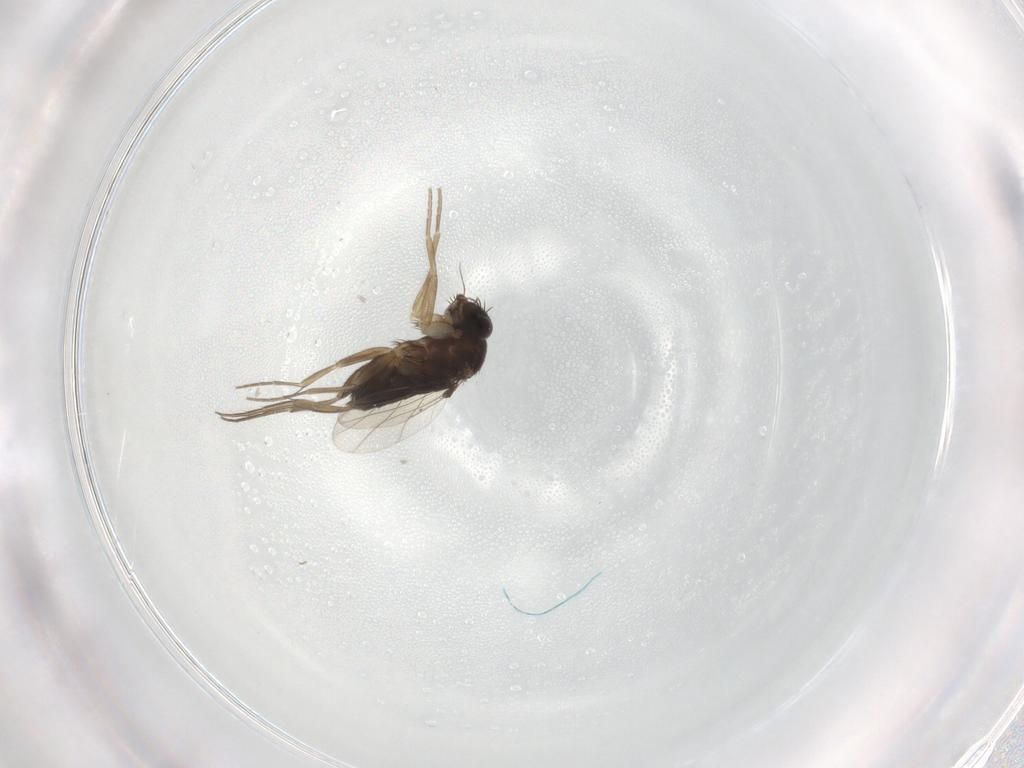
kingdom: Animalia
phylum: Arthropoda
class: Insecta
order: Diptera
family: Phoridae
